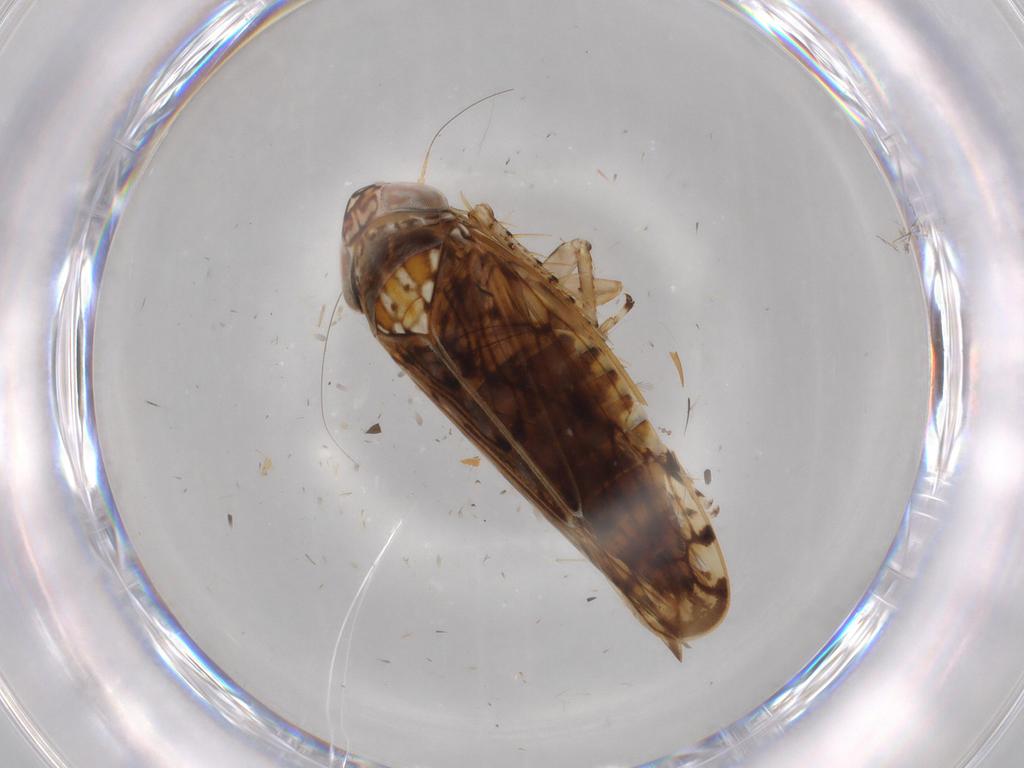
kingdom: Animalia
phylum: Arthropoda
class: Insecta
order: Hemiptera
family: Cicadellidae
